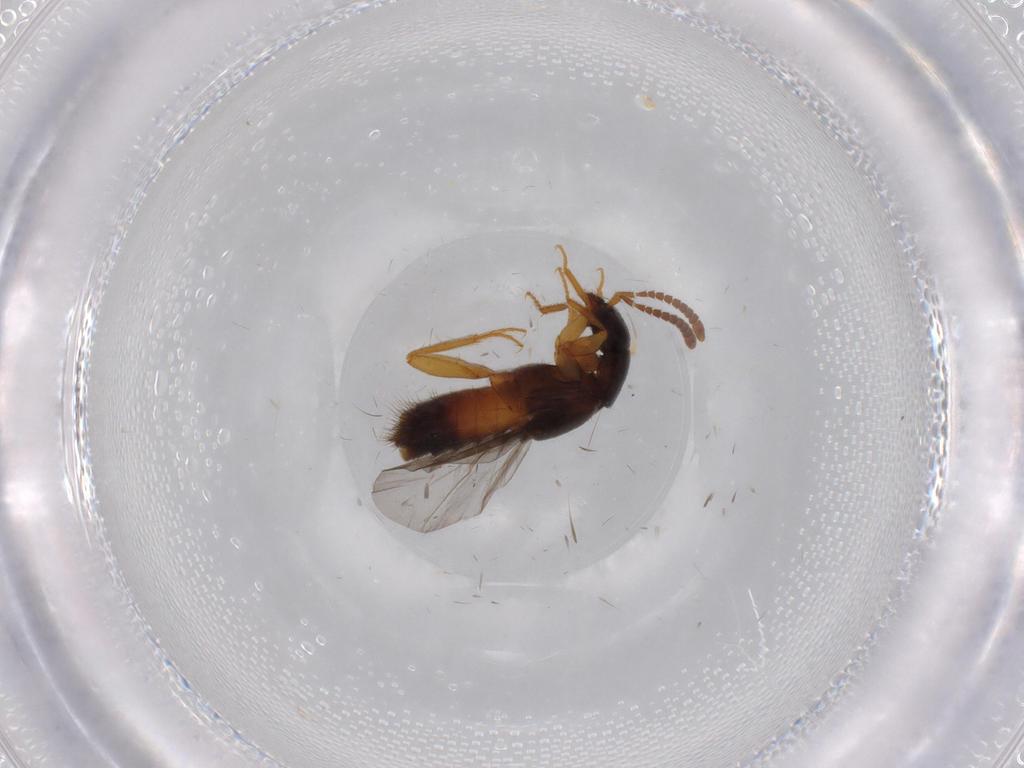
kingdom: Animalia
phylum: Arthropoda
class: Insecta
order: Coleoptera
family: Staphylinidae
